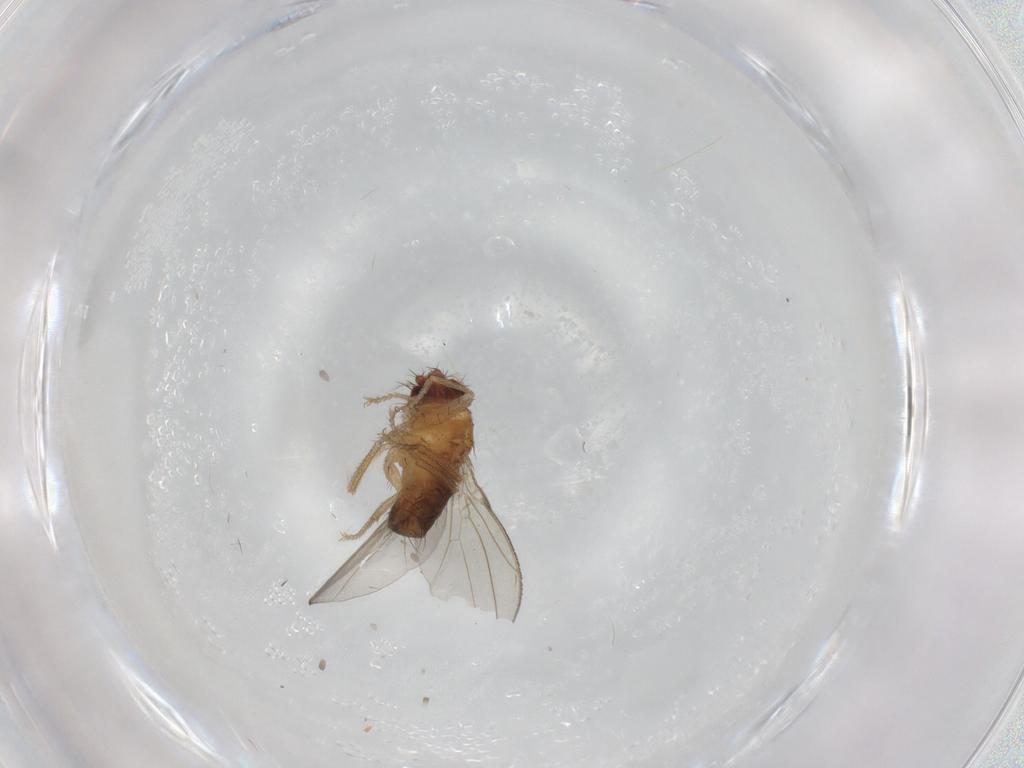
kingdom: Animalia
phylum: Arthropoda
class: Insecta
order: Diptera
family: Drosophilidae
